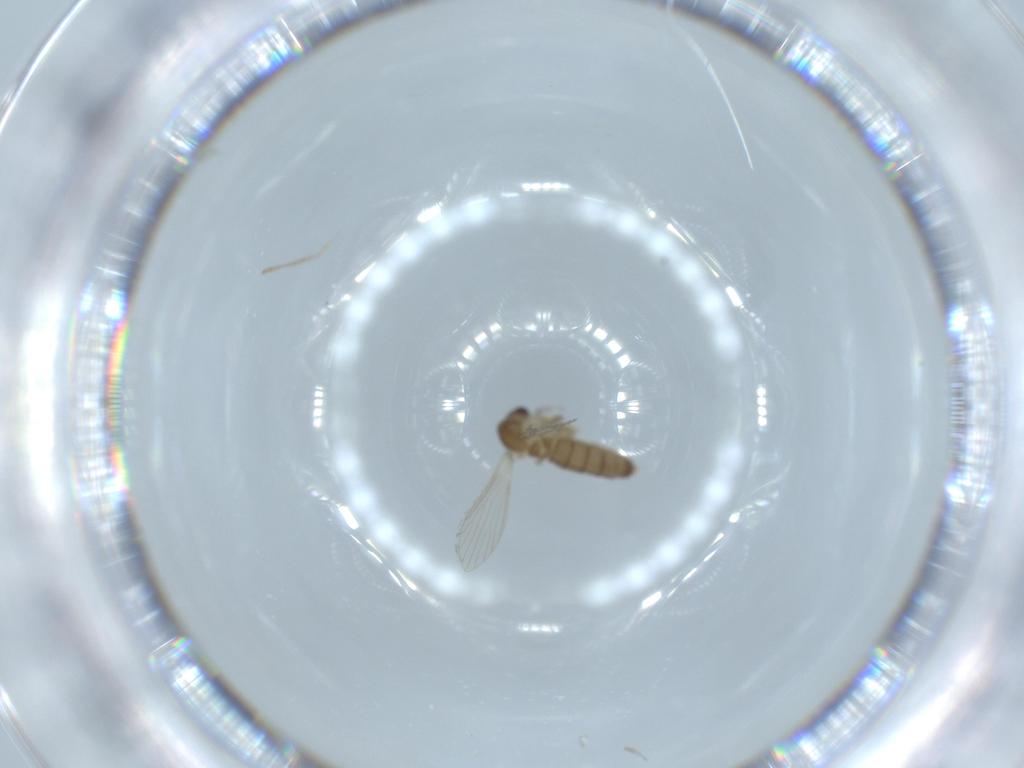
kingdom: Animalia
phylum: Arthropoda
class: Insecta
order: Diptera
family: Psychodidae
